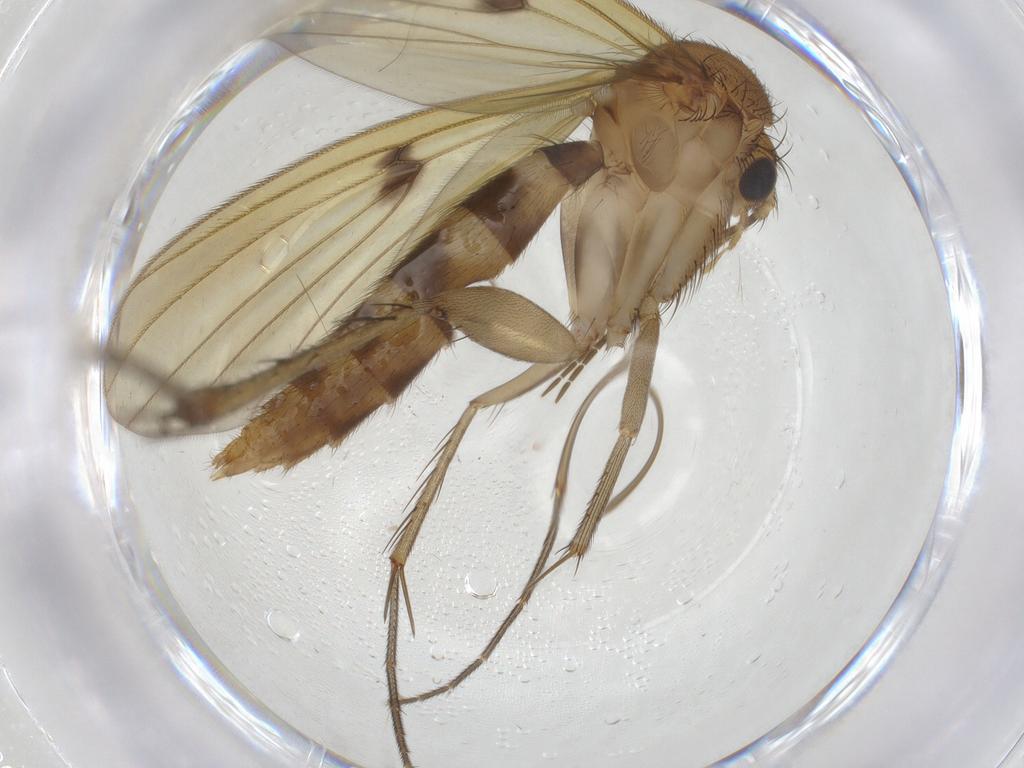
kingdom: Animalia
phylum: Arthropoda
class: Insecta
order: Diptera
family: Mycetophilidae
